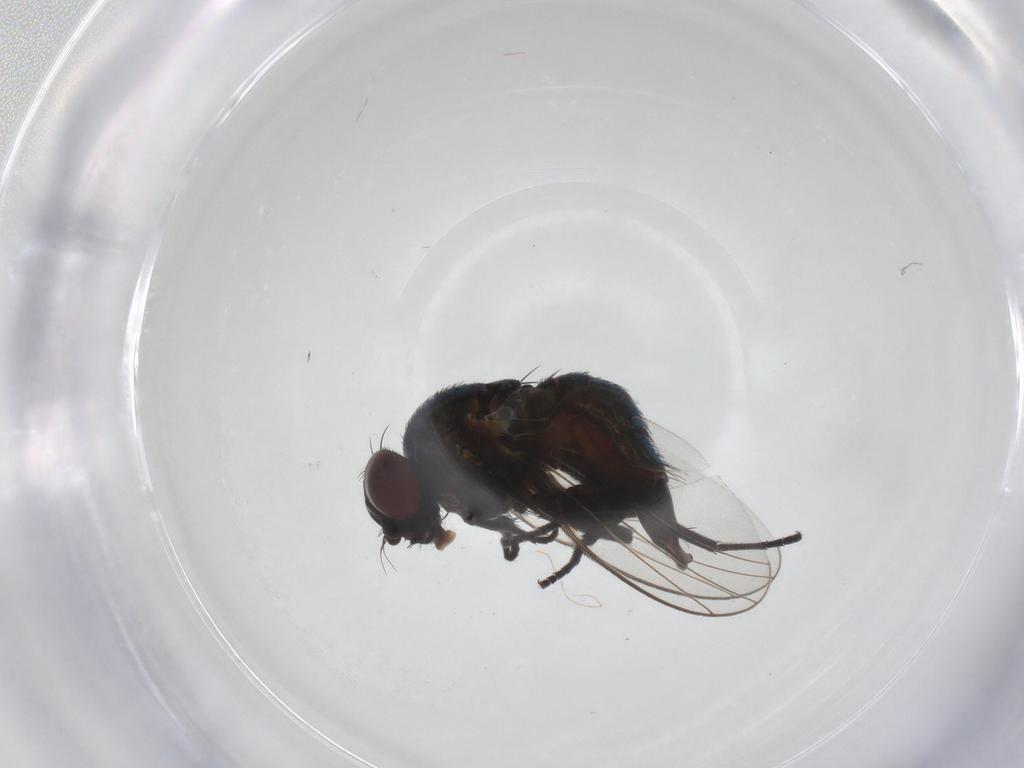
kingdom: Animalia
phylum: Arthropoda
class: Insecta
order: Diptera
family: Agromyzidae
